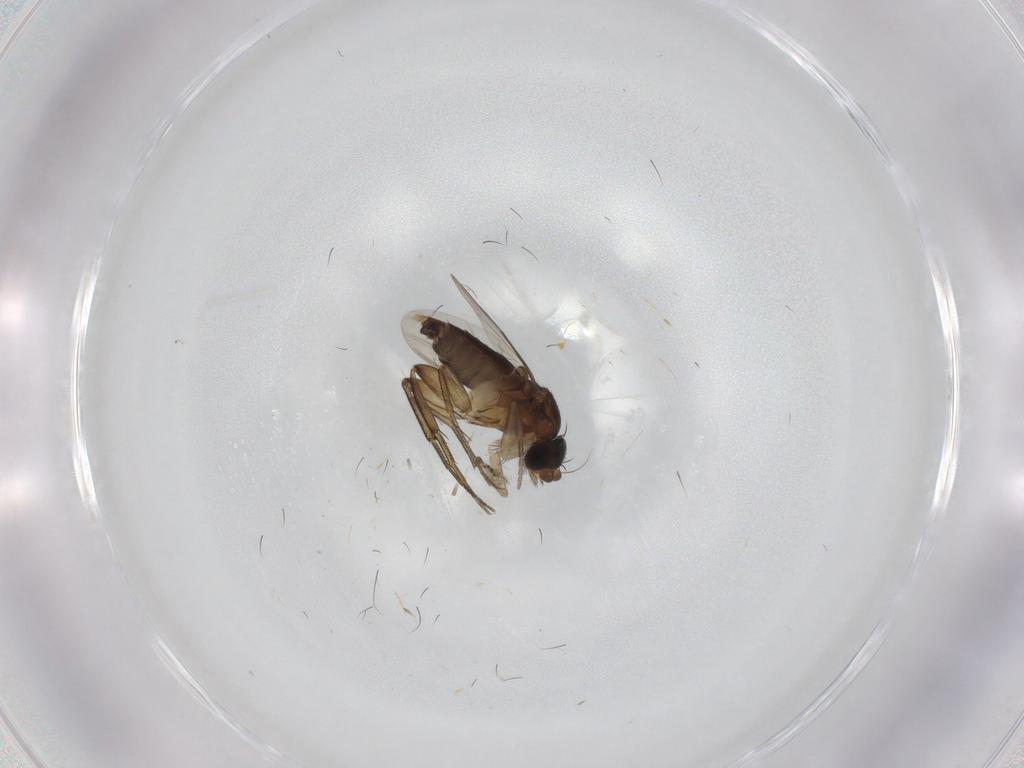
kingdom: Animalia
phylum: Arthropoda
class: Insecta
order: Diptera
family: Phoridae
